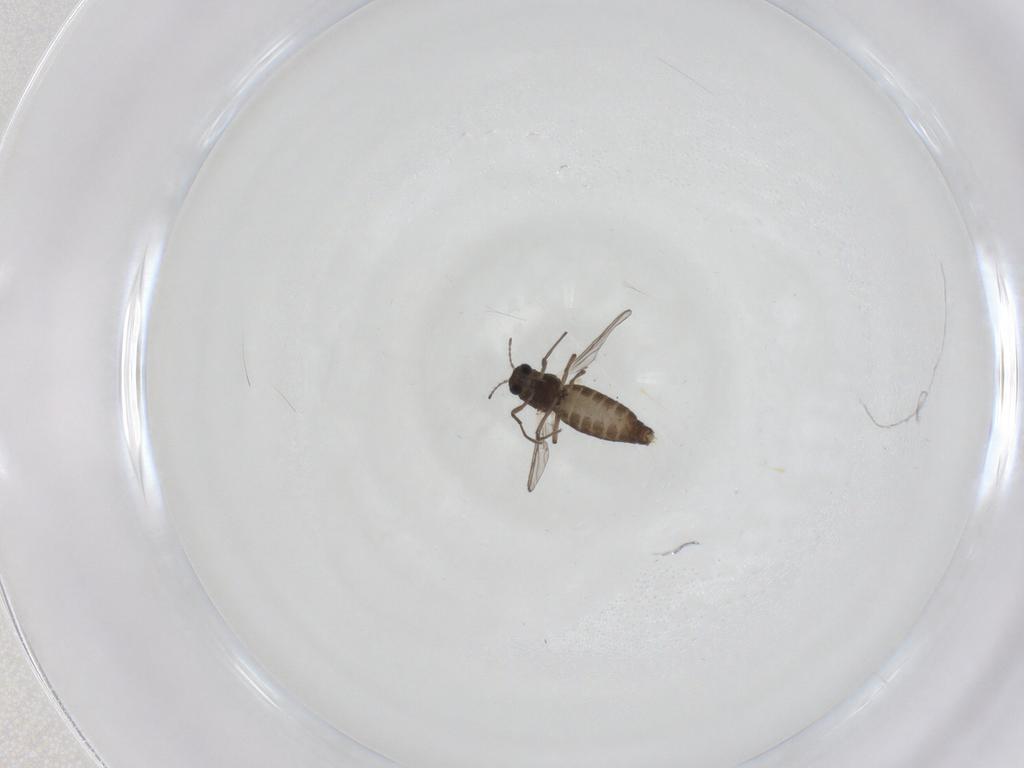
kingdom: Animalia
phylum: Arthropoda
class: Insecta
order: Diptera
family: Chironomidae
